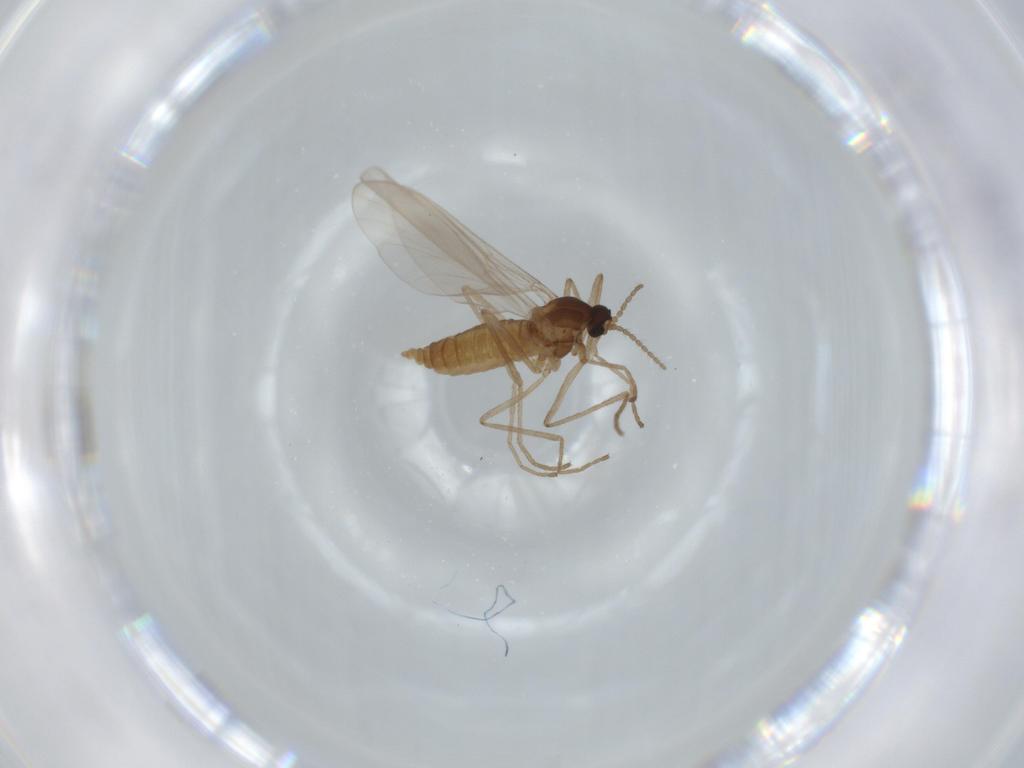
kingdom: Animalia
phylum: Arthropoda
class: Insecta
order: Diptera
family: Cecidomyiidae
